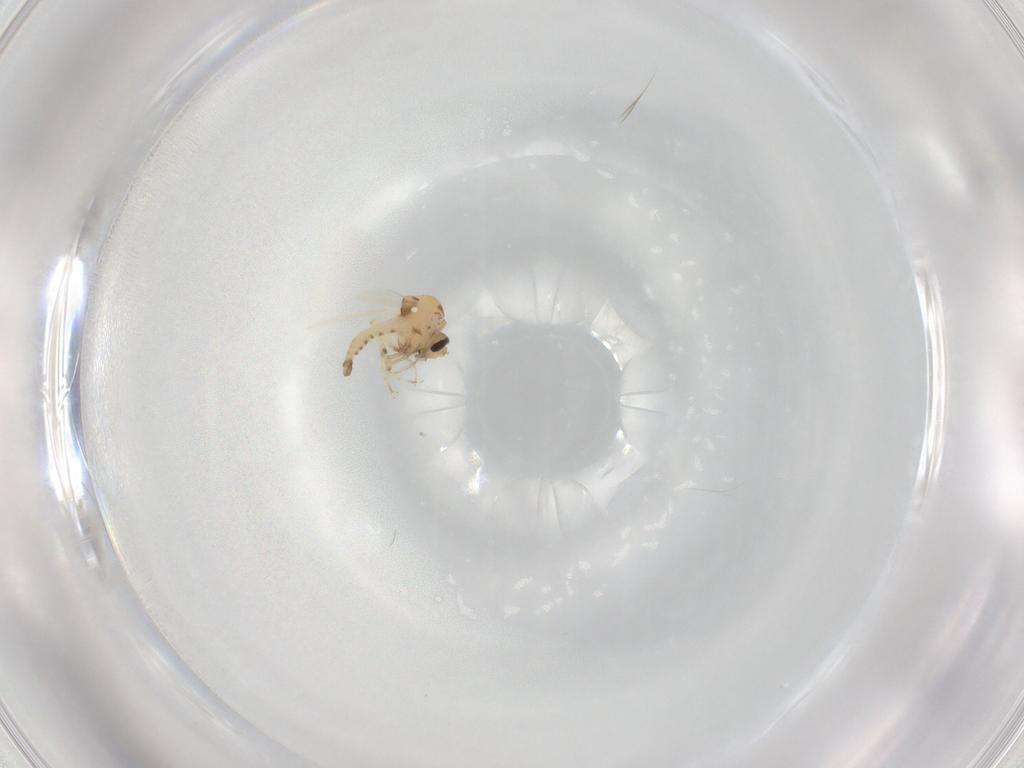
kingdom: Animalia
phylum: Arthropoda
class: Insecta
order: Diptera
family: Ceratopogonidae
